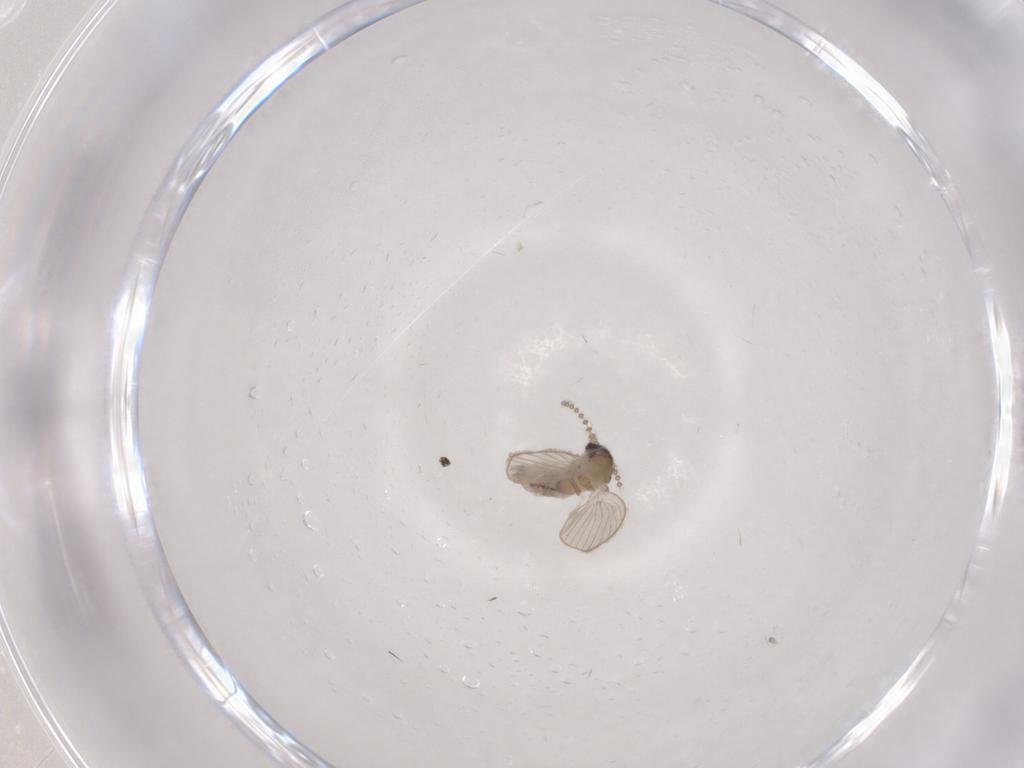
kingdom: Animalia
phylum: Arthropoda
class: Insecta
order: Diptera
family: Psychodidae
